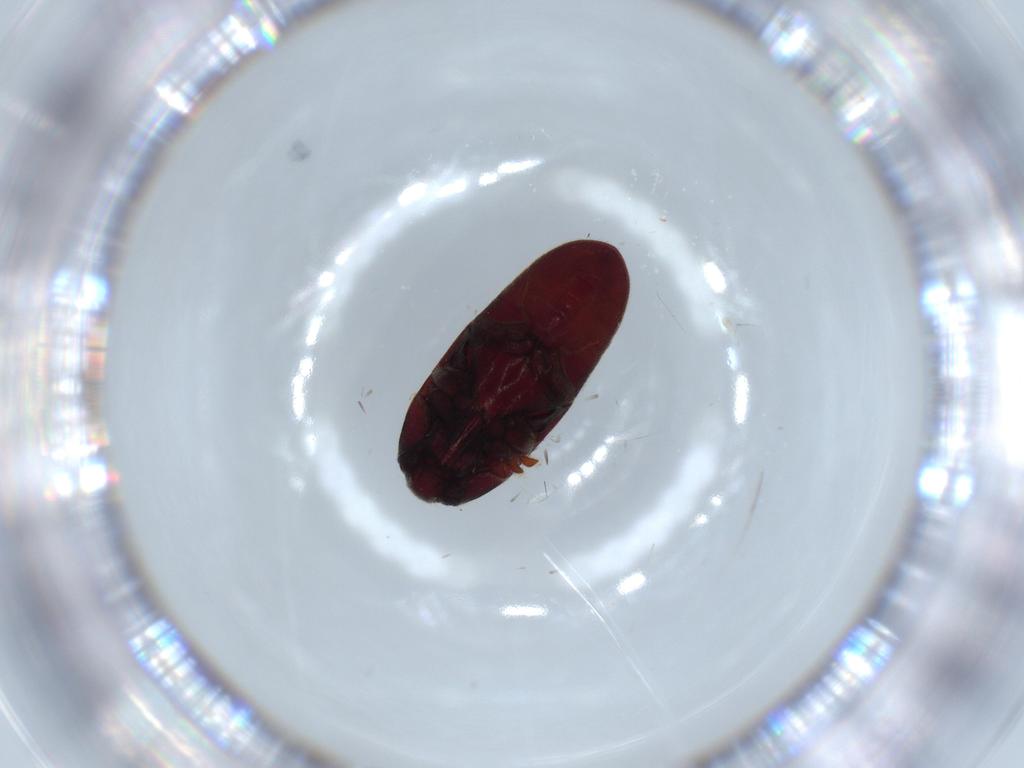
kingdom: Animalia
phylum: Arthropoda
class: Insecta
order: Coleoptera
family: Throscidae
